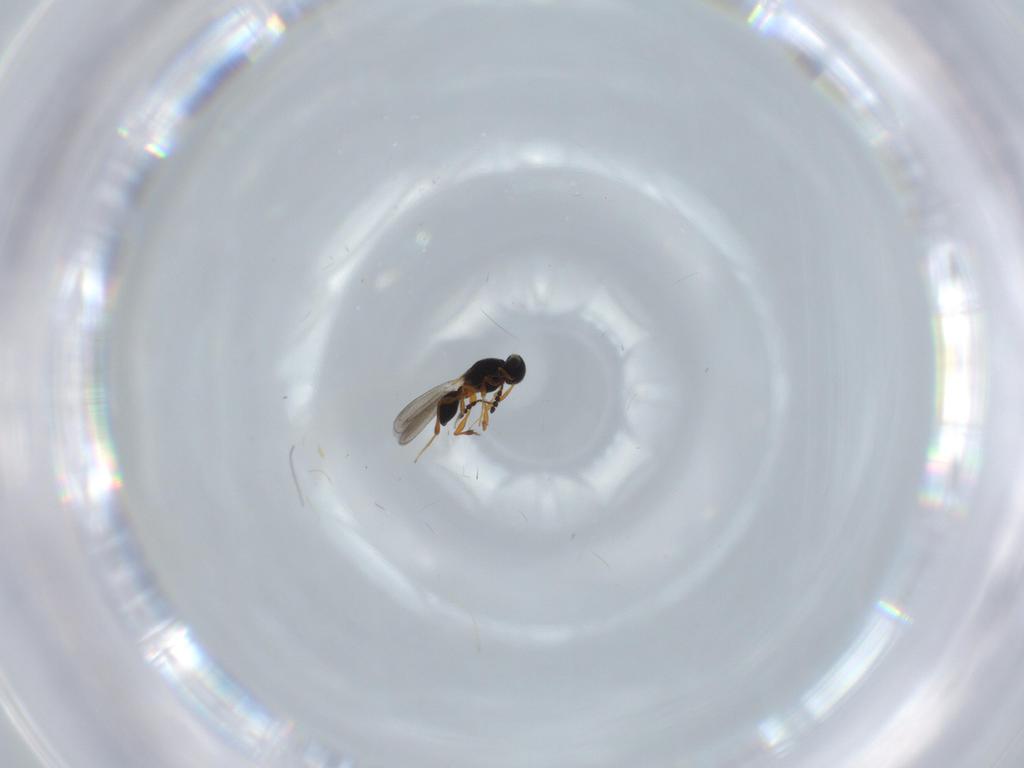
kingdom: Animalia
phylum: Arthropoda
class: Insecta
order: Hymenoptera
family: Platygastridae
